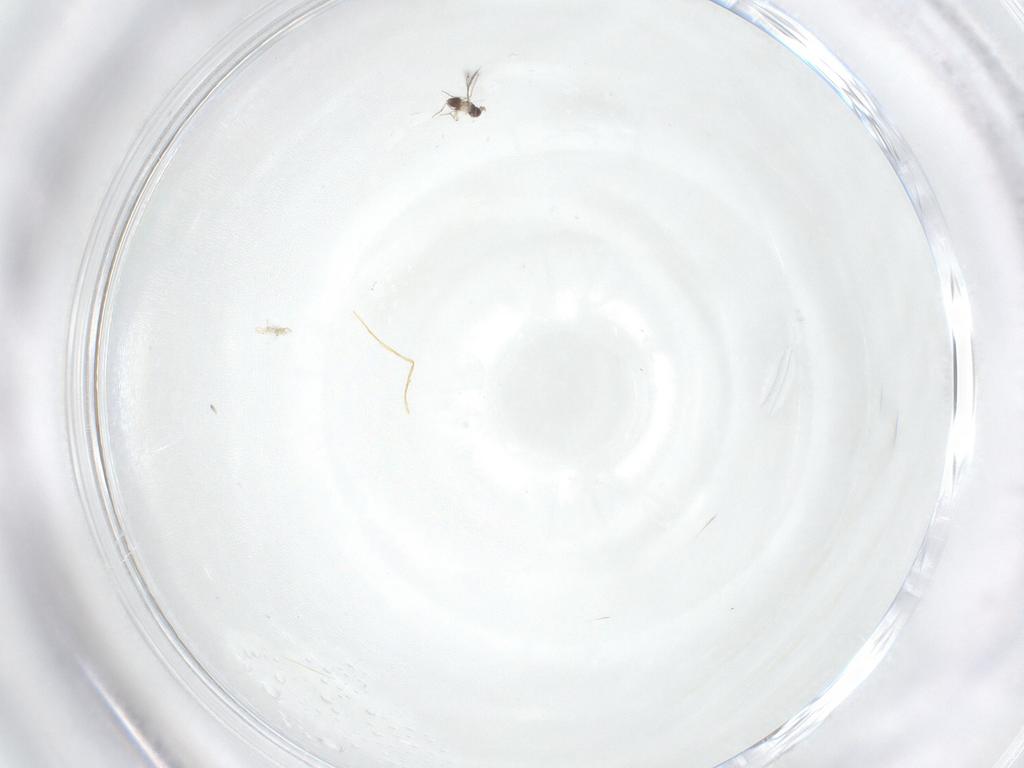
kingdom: Animalia
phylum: Arthropoda
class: Insecta
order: Hymenoptera
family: Mymaridae
